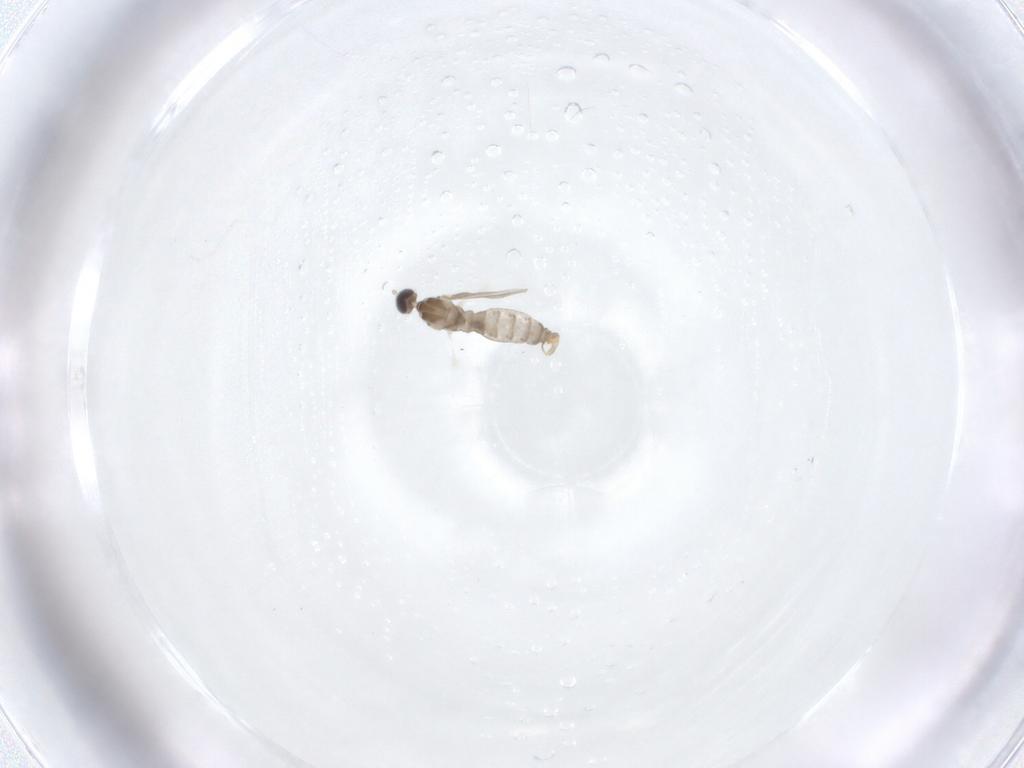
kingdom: Animalia
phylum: Arthropoda
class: Insecta
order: Diptera
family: Cecidomyiidae
